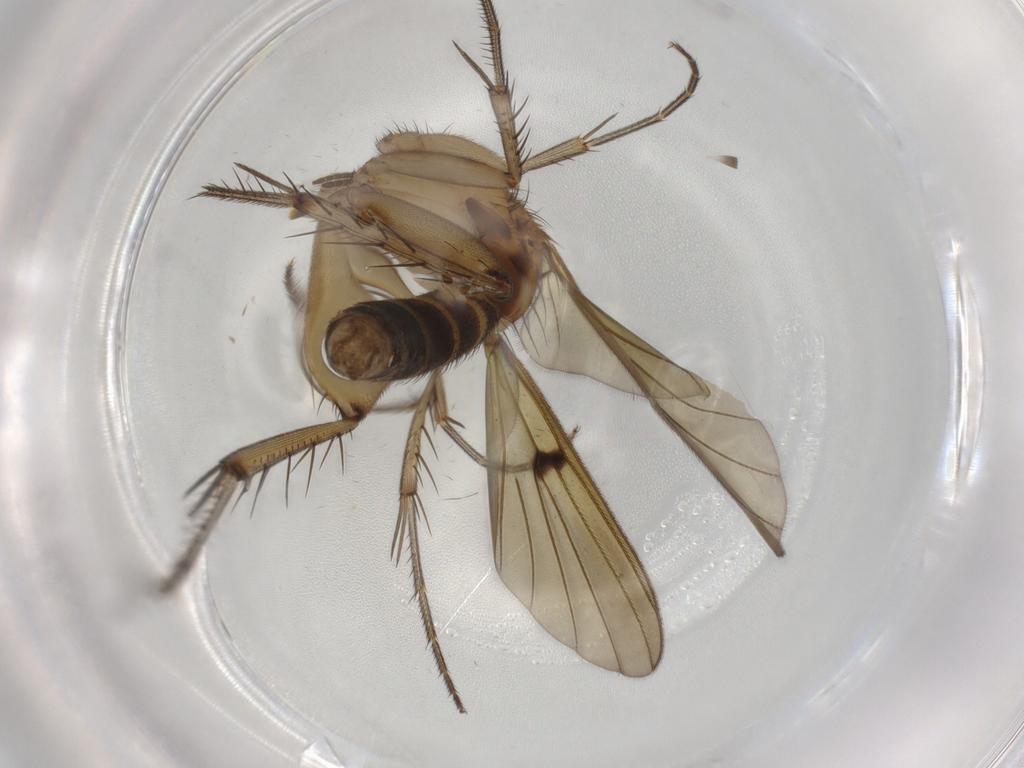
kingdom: Animalia
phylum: Arthropoda
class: Insecta
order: Diptera
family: Mycetophilidae
